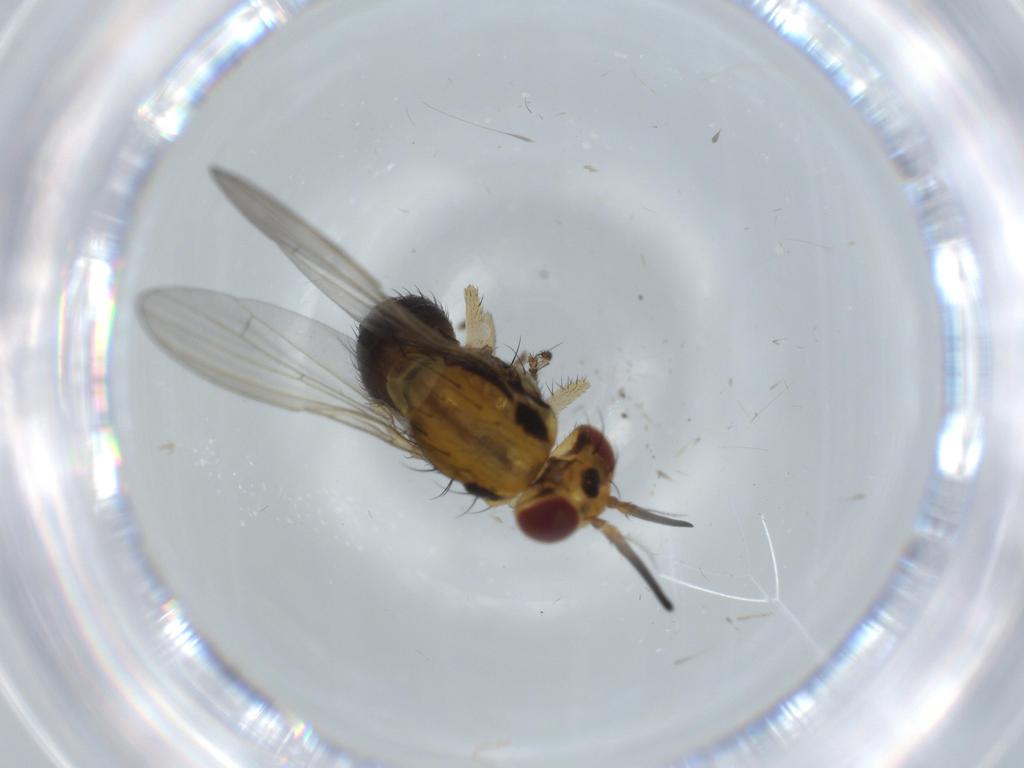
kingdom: Animalia
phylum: Arthropoda
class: Insecta
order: Diptera
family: Lauxaniidae
